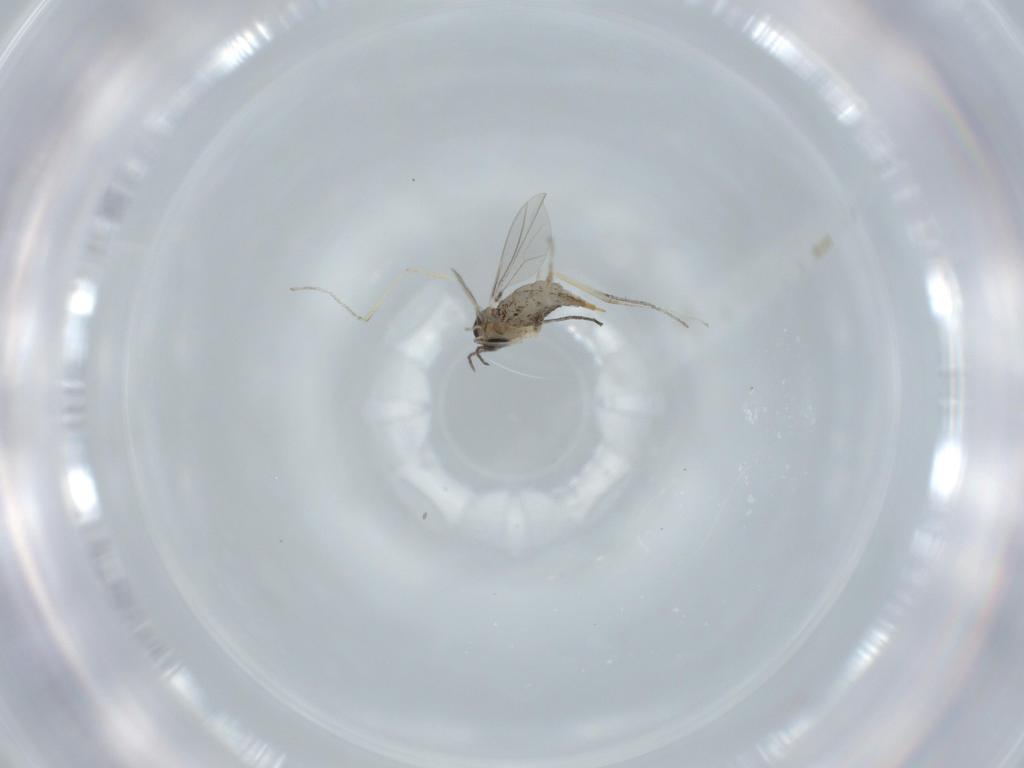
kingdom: Animalia
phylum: Arthropoda
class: Insecta
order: Diptera
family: Cecidomyiidae
